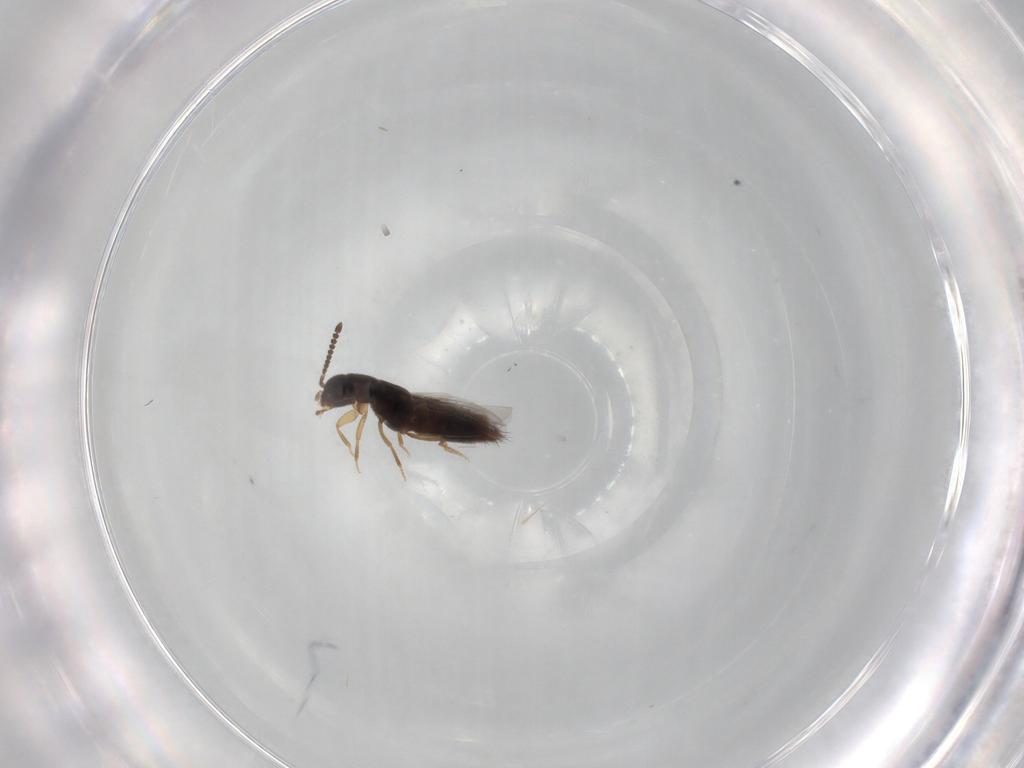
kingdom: Animalia
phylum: Arthropoda
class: Insecta
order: Coleoptera
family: Staphylinidae
